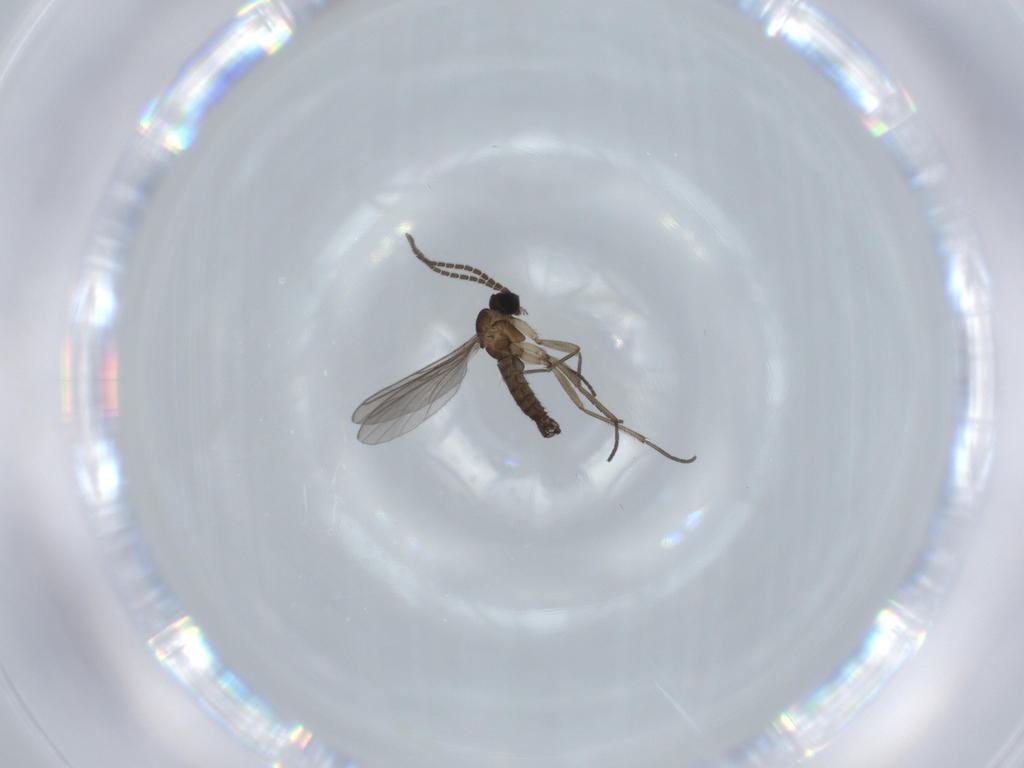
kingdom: Animalia
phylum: Arthropoda
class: Insecta
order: Diptera
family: Sciaridae
